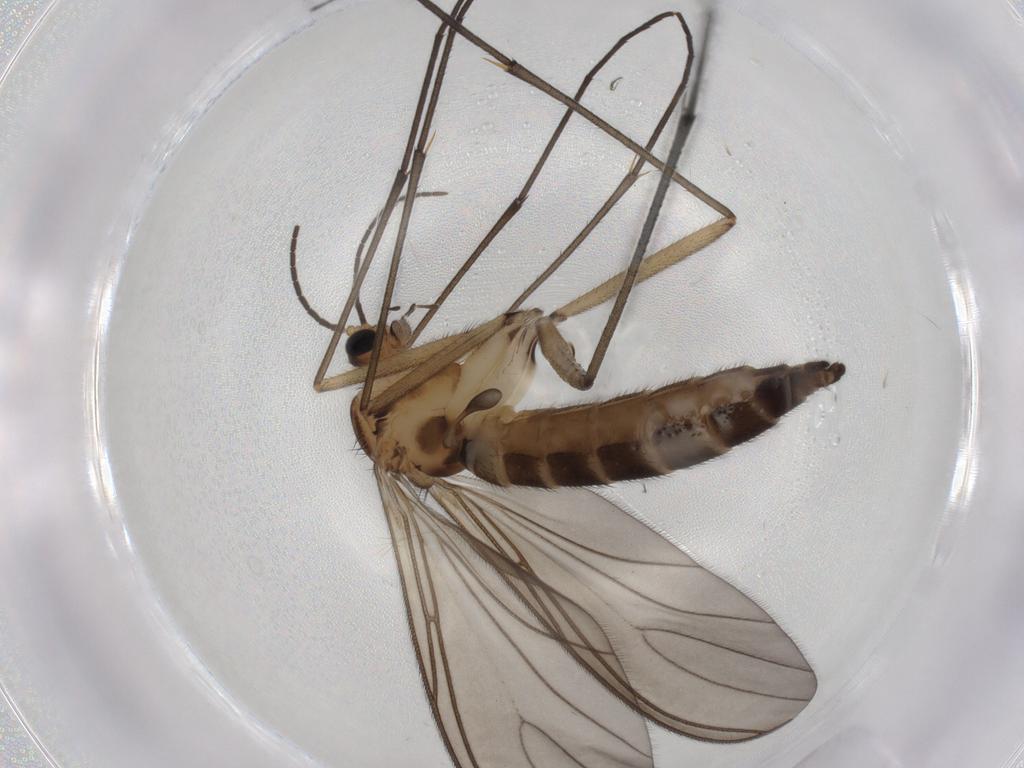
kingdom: Animalia
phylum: Arthropoda
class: Insecta
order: Diptera
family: Sciaridae
